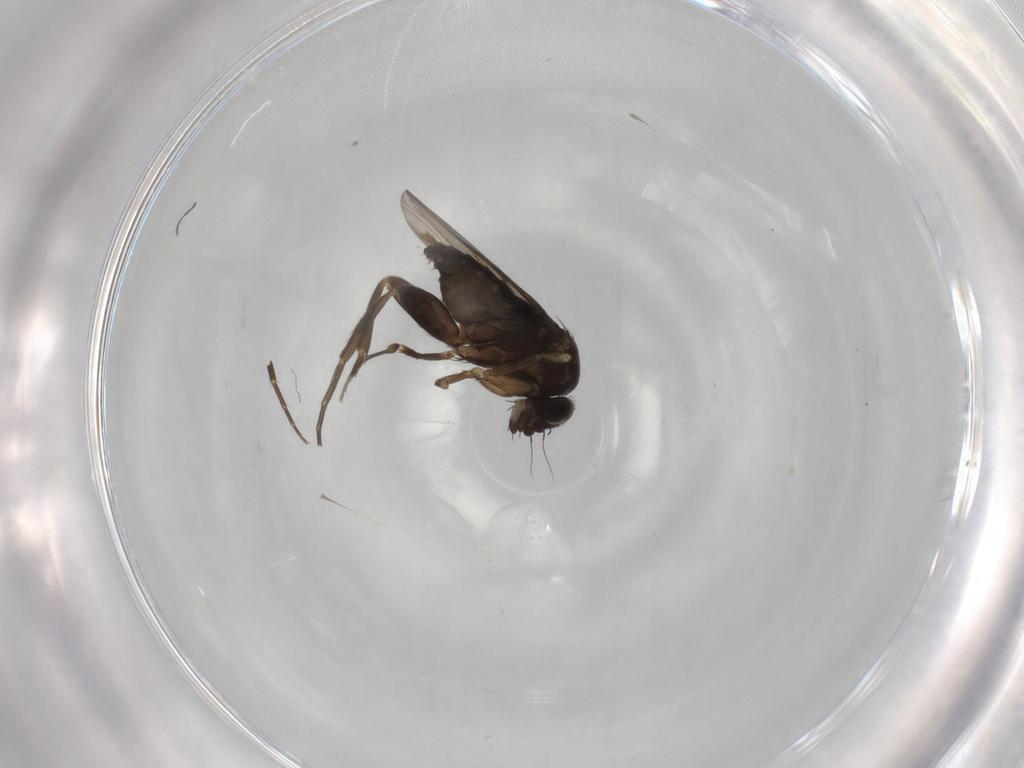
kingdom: Animalia
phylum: Arthropoda
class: Insecta
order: Diptera
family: Phoridae
